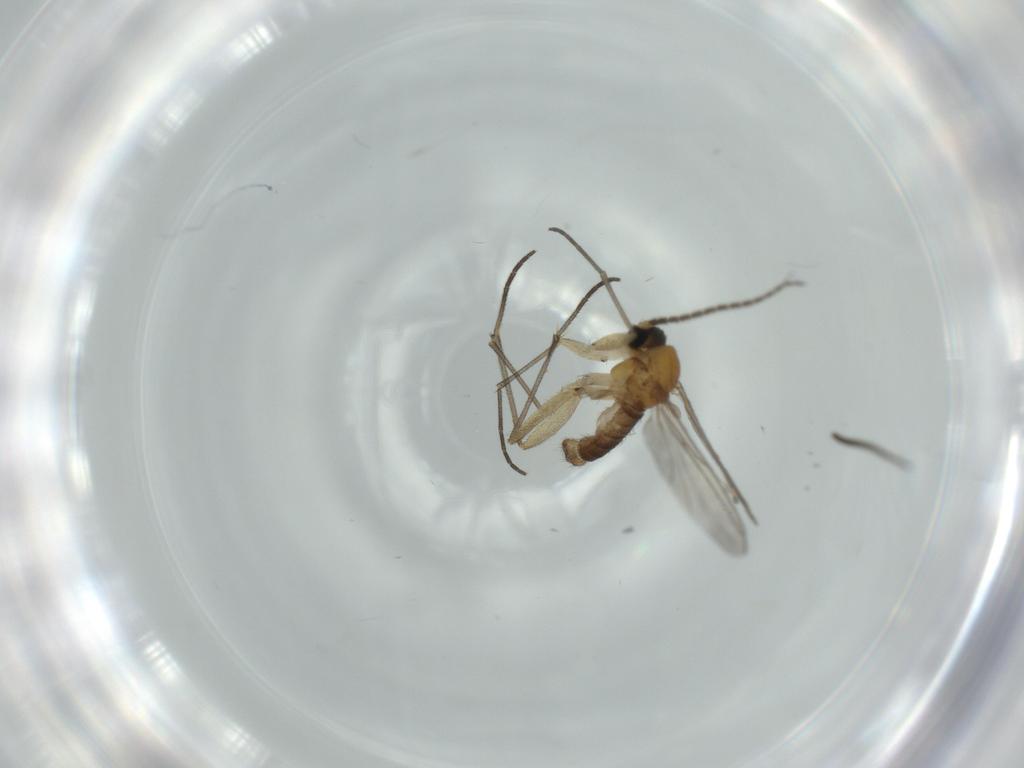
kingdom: Animalia
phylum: Arthropoda
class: Insecta
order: Diptera
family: Sciaridae
